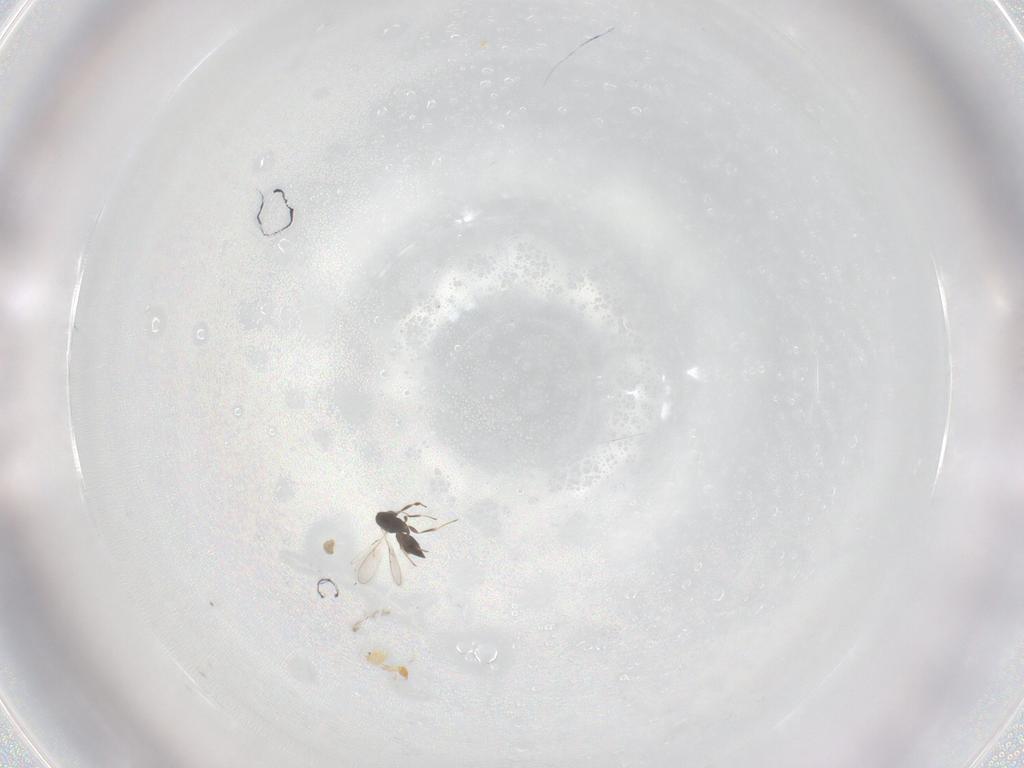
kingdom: Animalia
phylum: Arthropoda
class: Insecta
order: Hymenoptera
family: Scelionidae
